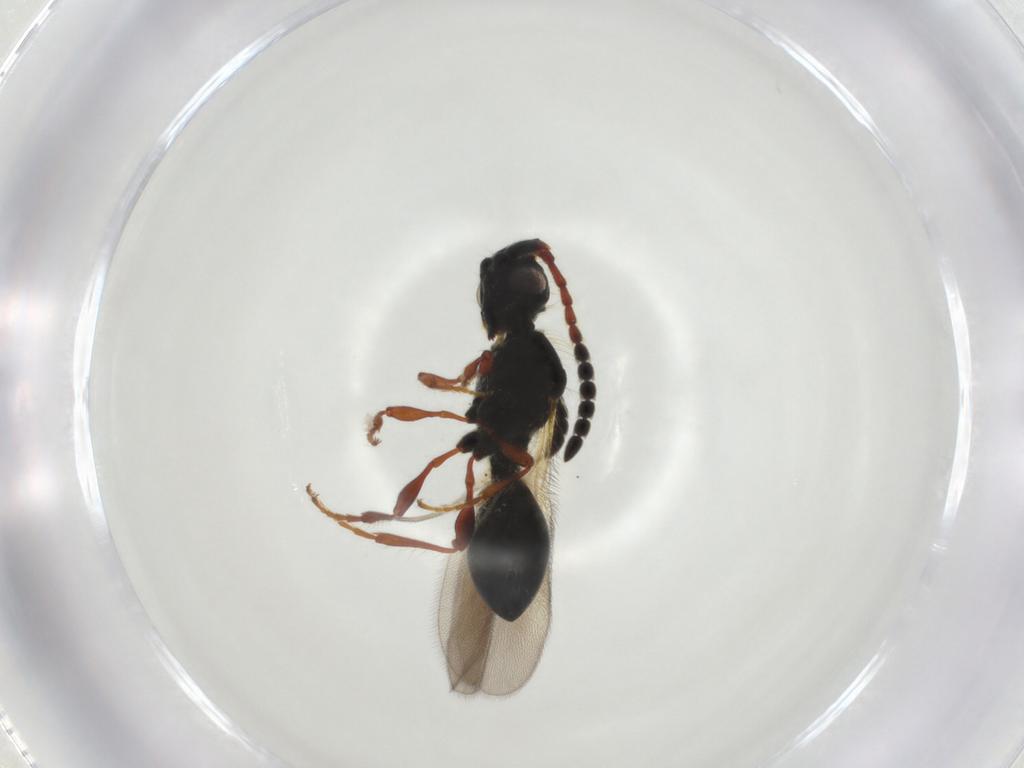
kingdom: Animalia
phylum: Arthropoda
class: Insecta
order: Hymenoptera
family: Diapriidae
